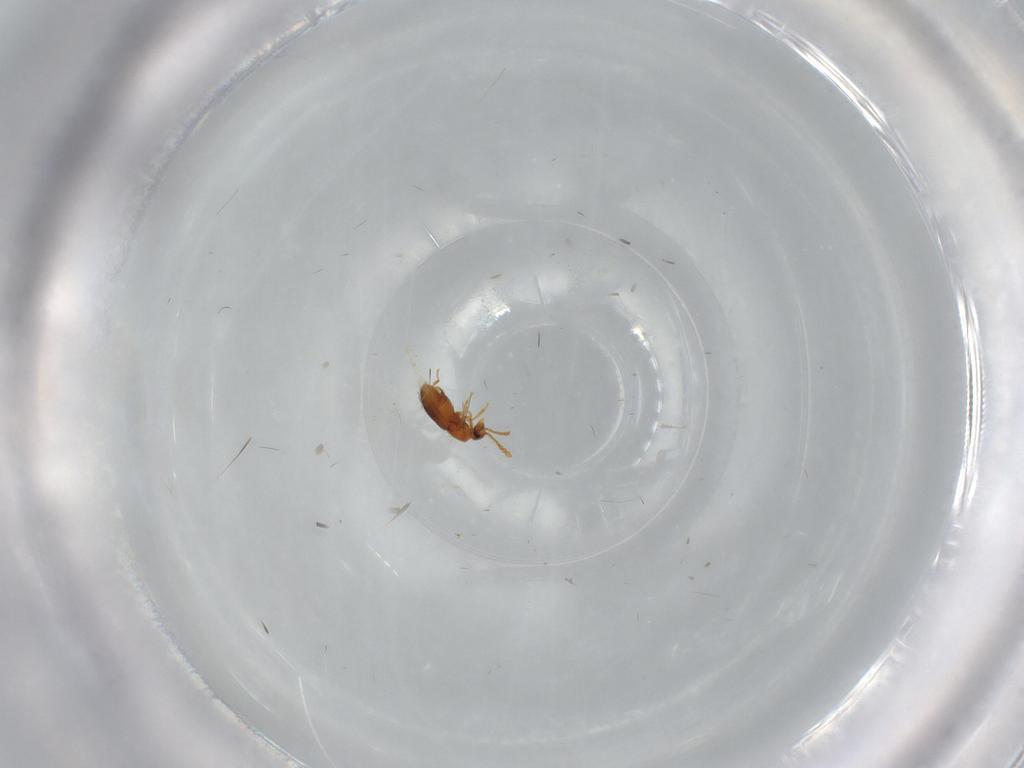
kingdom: Animalia
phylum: Arthropoda
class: Insecta
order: Coleoptera
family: Staphylinidae
